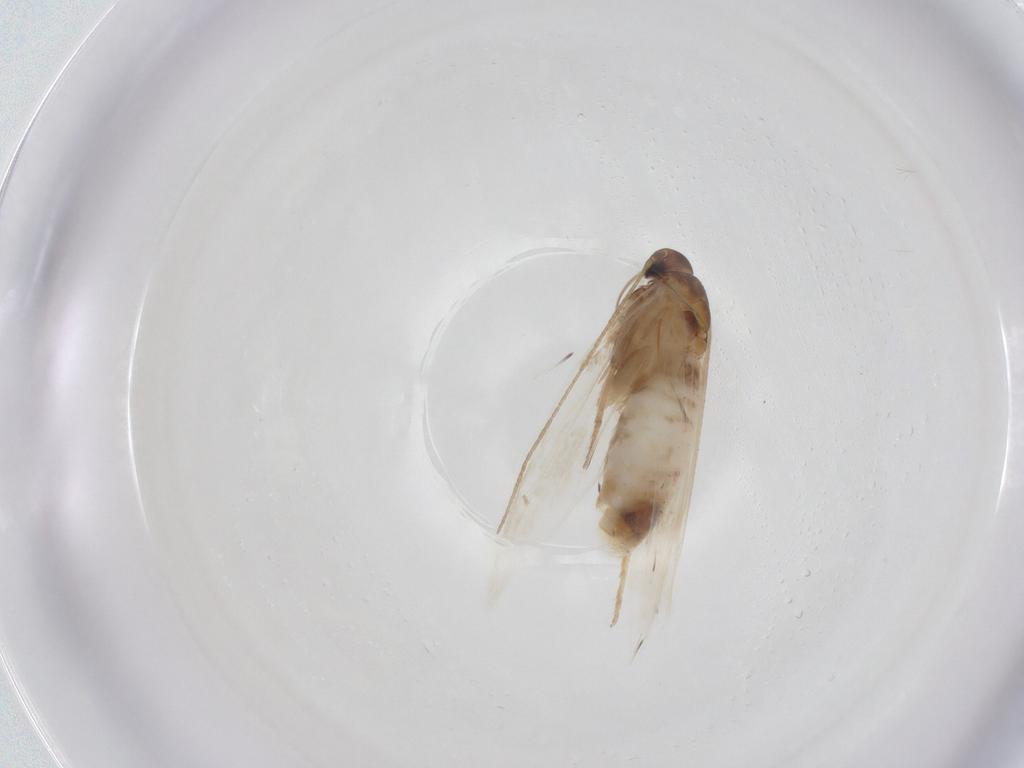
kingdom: Animalia
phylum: Arthropoda
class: Insecta
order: Lepidoptera
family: Gelechiidae
